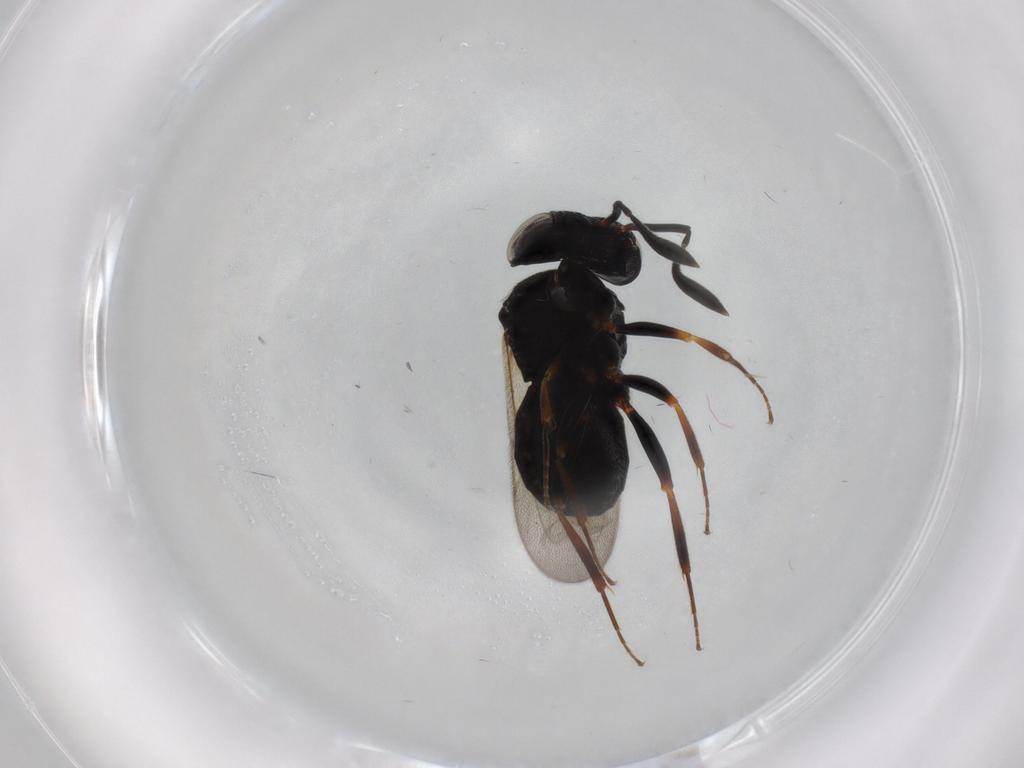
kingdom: Animalia
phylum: Arthropoda
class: Insecta
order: Hymenoptera
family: Scelionidae
